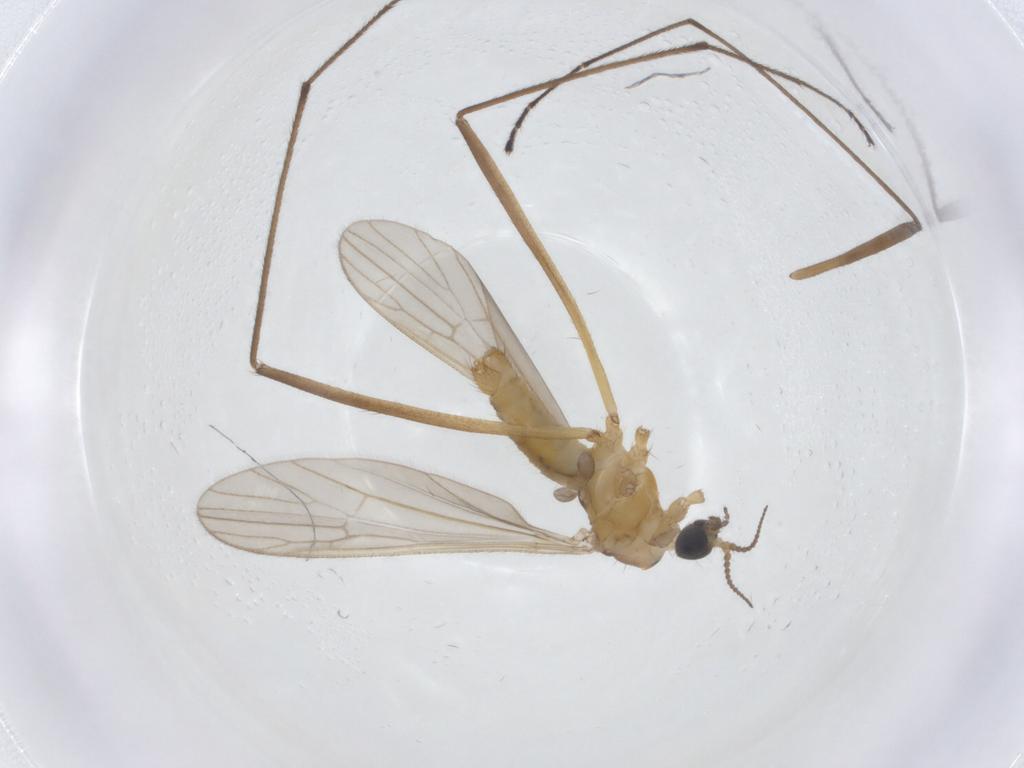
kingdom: Animalia
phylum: Arthropoda
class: Insecta
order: Diptera
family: Limoniidae
